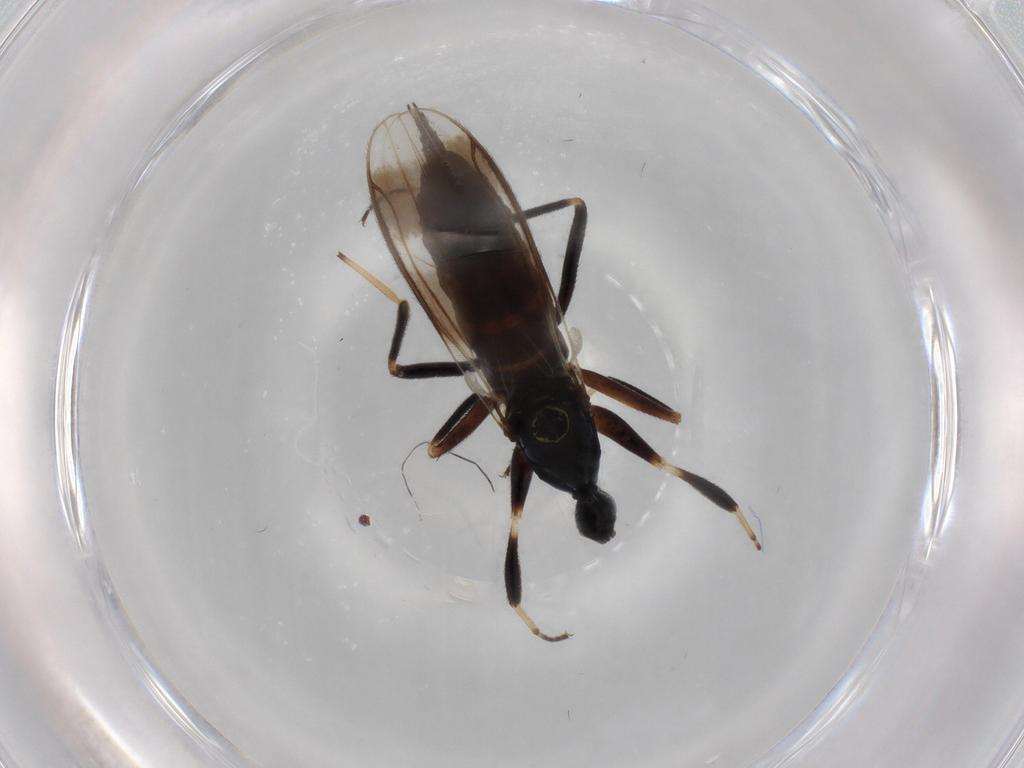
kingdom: Animalia
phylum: Arthropoda
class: Insecta
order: Diptera
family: Hybotidae
